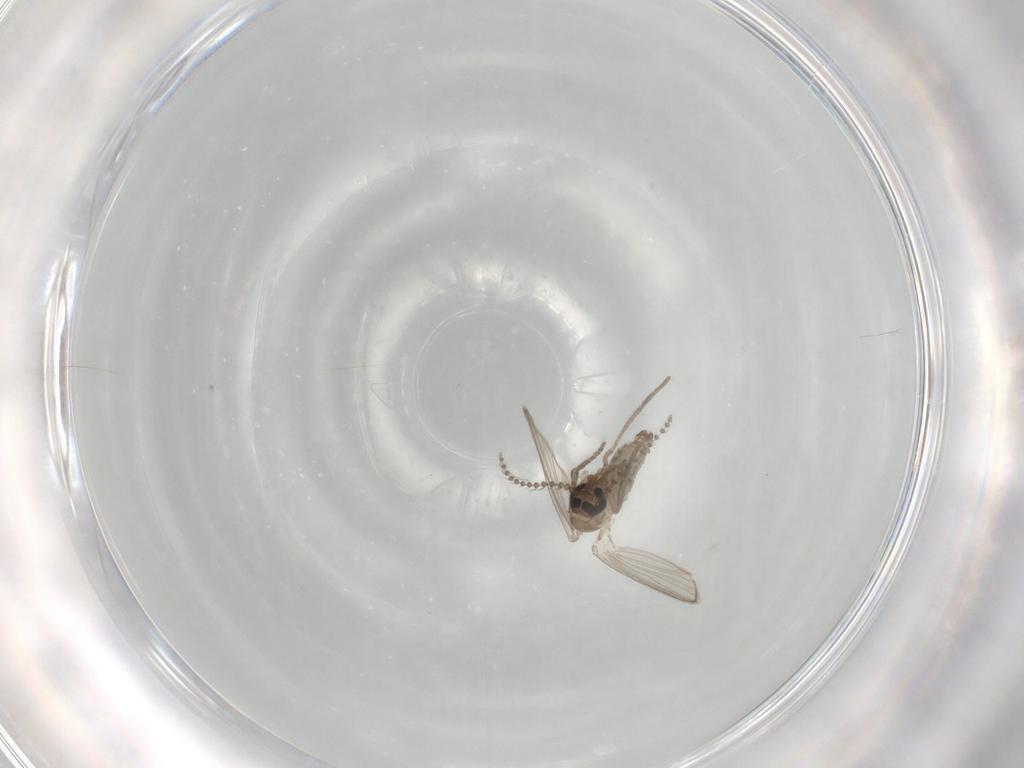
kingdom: Animalia
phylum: Arthropoda
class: Insecta
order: Diptera
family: Psychodidae
